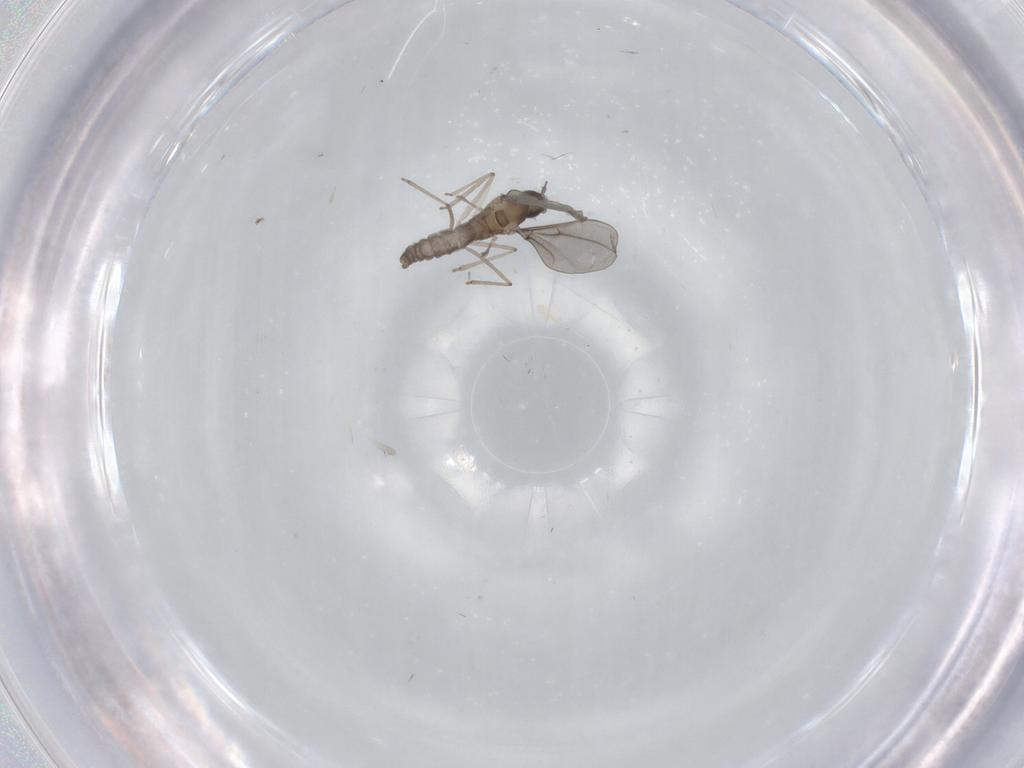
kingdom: Animalia
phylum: Arthropoda
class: Insecta
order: Diptera
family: Cecidomyiidae
